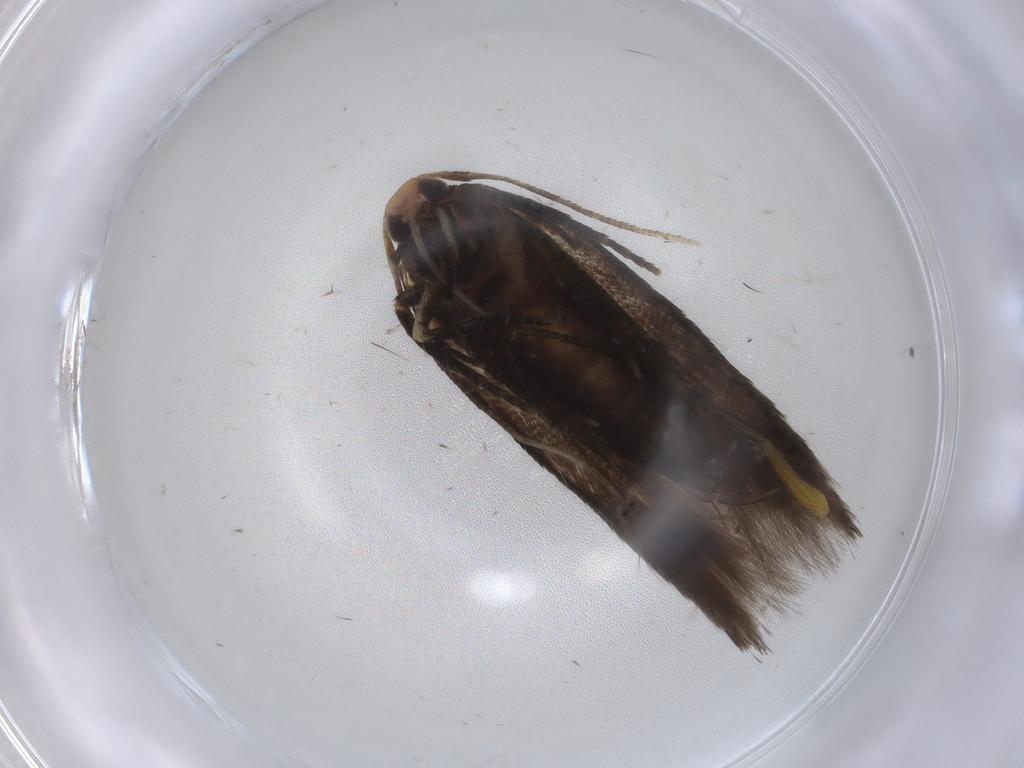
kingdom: Animalia
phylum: Arthropoda
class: Insecta
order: Lepidoptera
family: Cosmopterigidae
